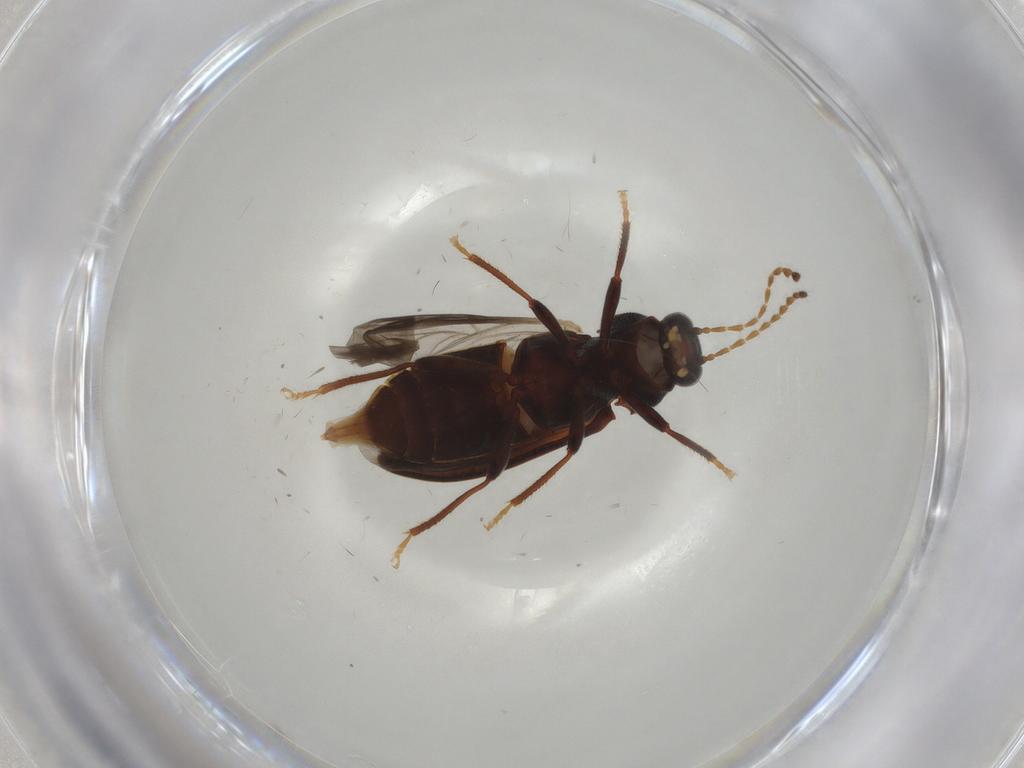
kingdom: Animalia
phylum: Arthropoda
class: Insecta
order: Coleoptera
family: Ptilodactylidae
